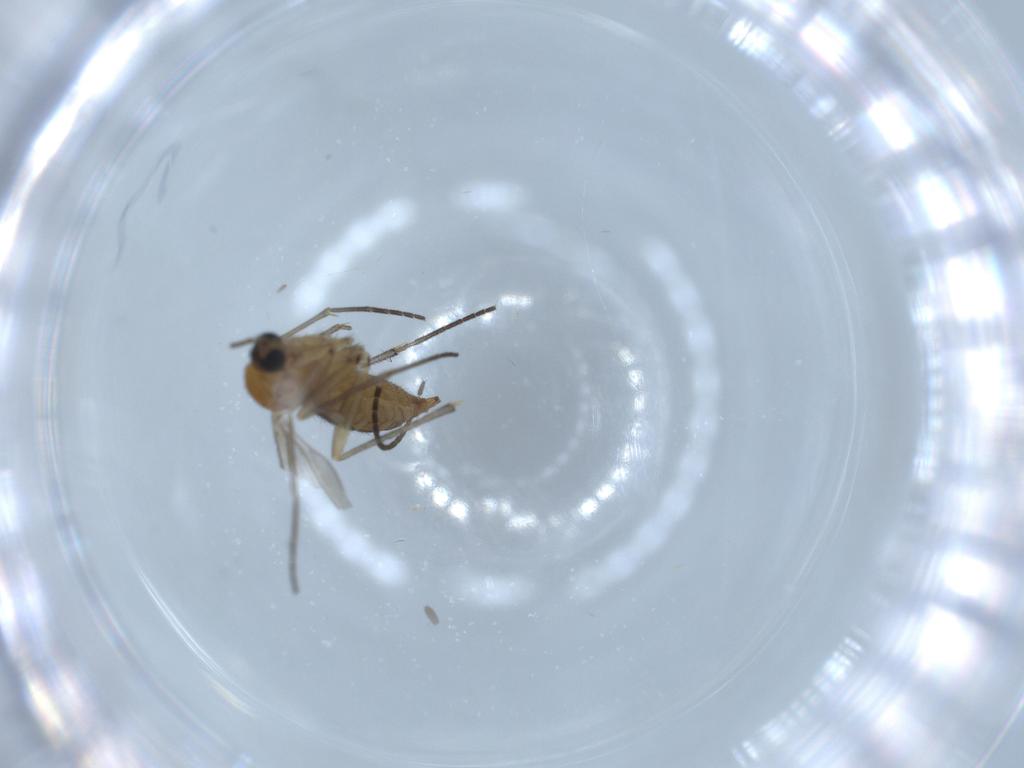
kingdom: Animalia
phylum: Arthropoda
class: Insecta
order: Diptera
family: Sciaridae
